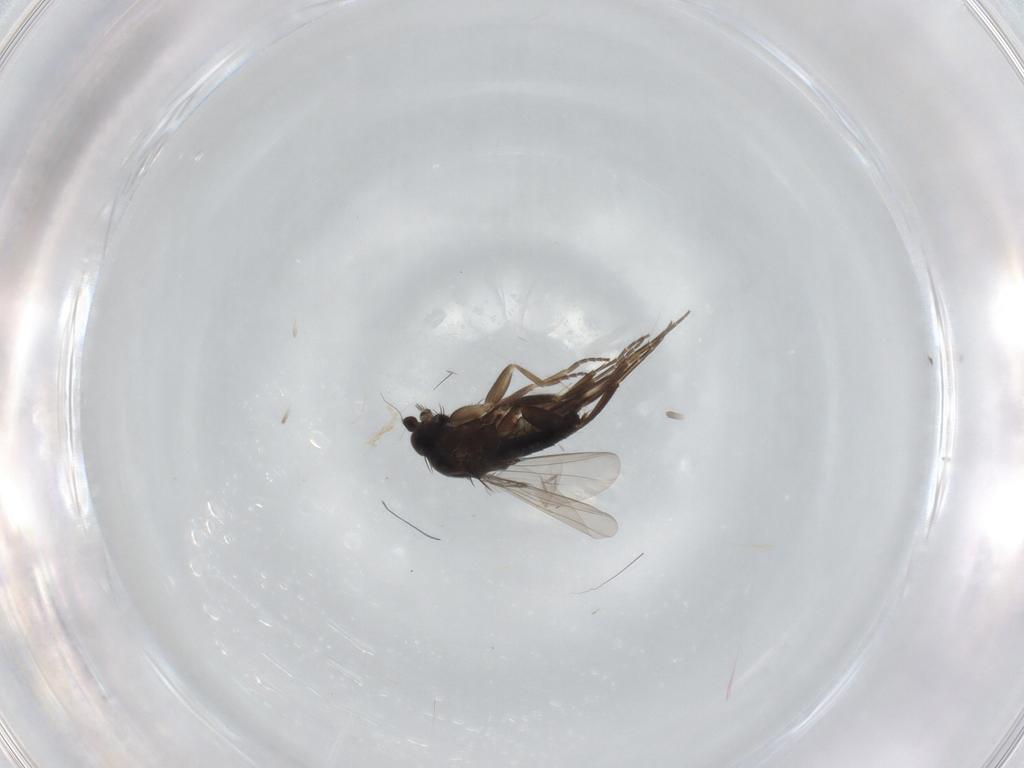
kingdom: Animalia
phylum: Arthropoda
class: Insecta
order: Diptera
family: Phoridae
